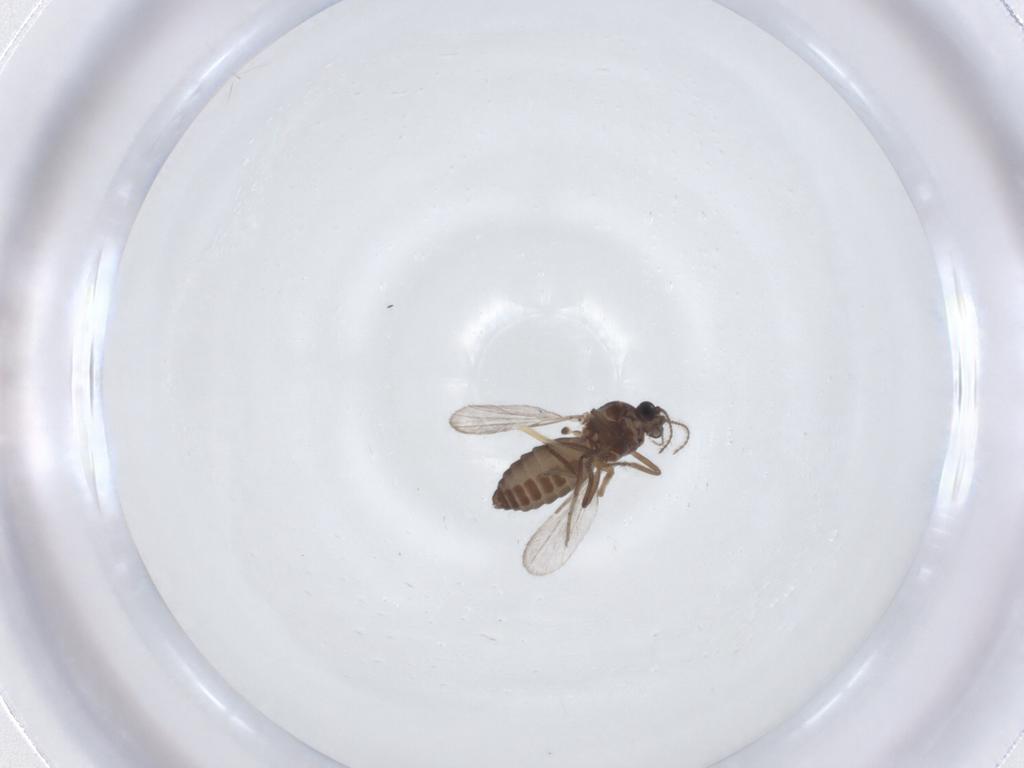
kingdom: Animalia
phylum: Arthropoda
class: Insecta
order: Diptera
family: Ceratopogonidae
